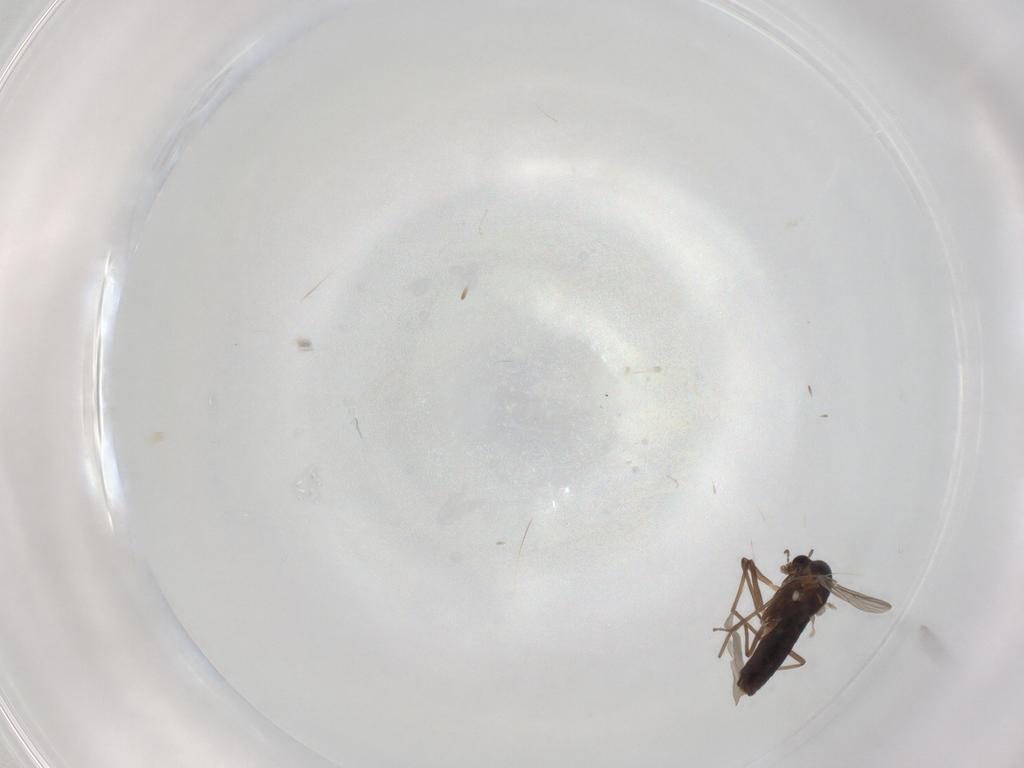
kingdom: Animalia
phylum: Arthropoda
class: Insecta
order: Diptera
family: Chironomidae
